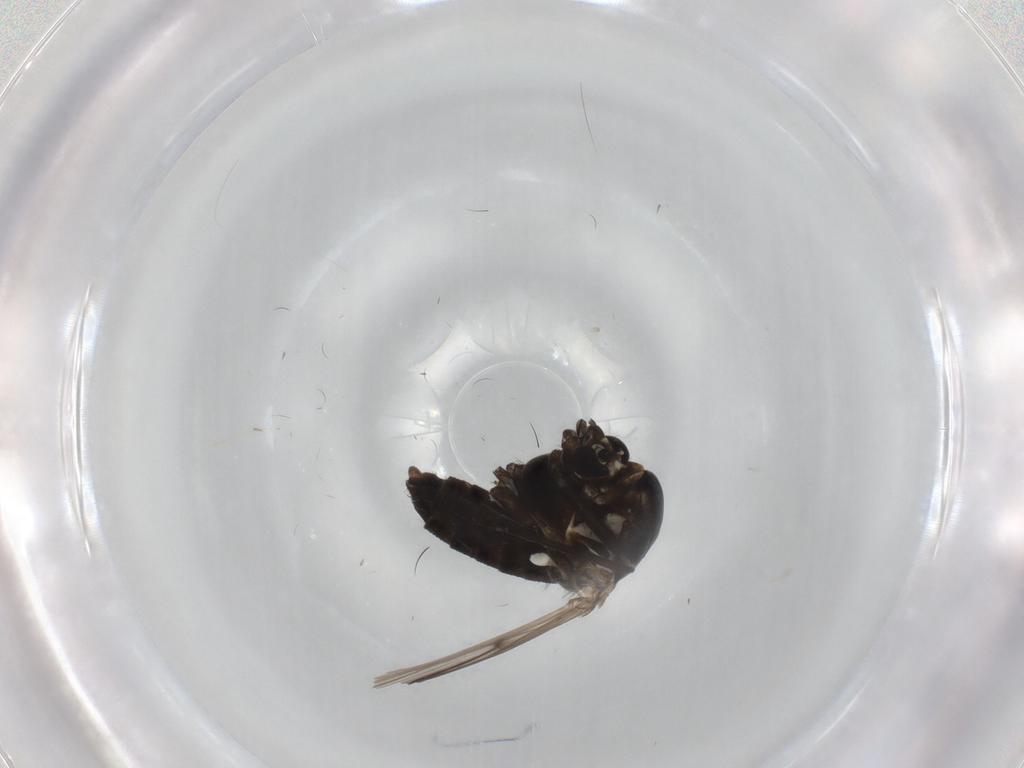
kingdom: Animalia
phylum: Arthropoda
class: Insecta
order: Diptera
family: Chironomidae
